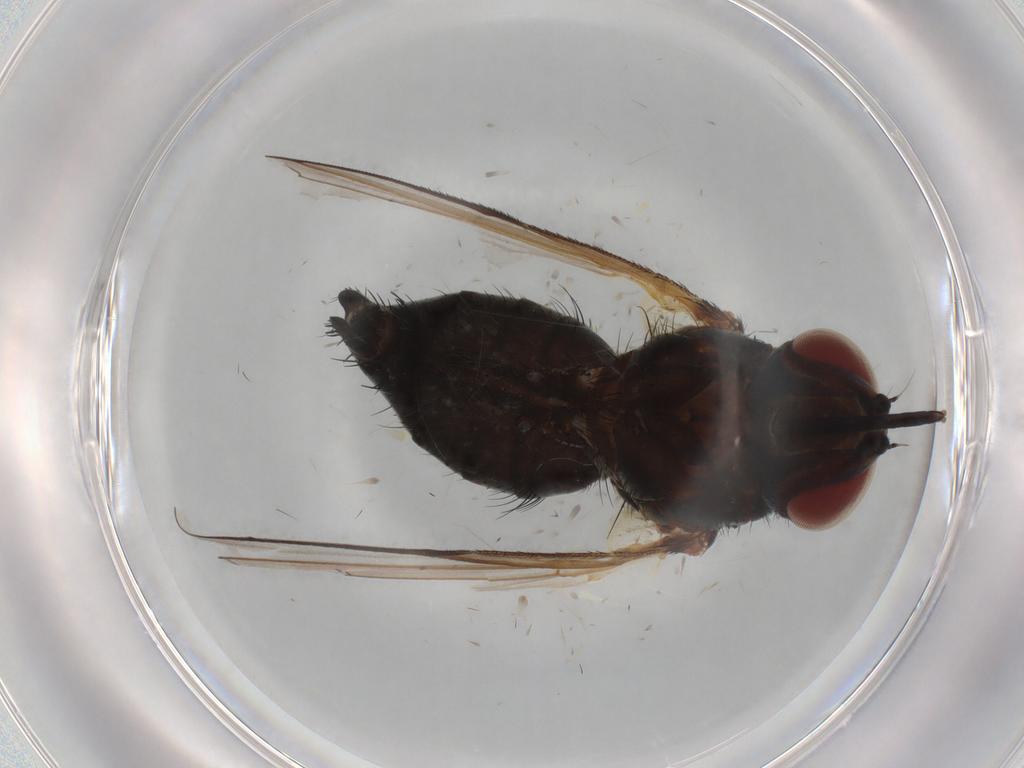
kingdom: Animalia
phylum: Arthropoda
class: Insecta
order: Diptera
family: Tachinidae
